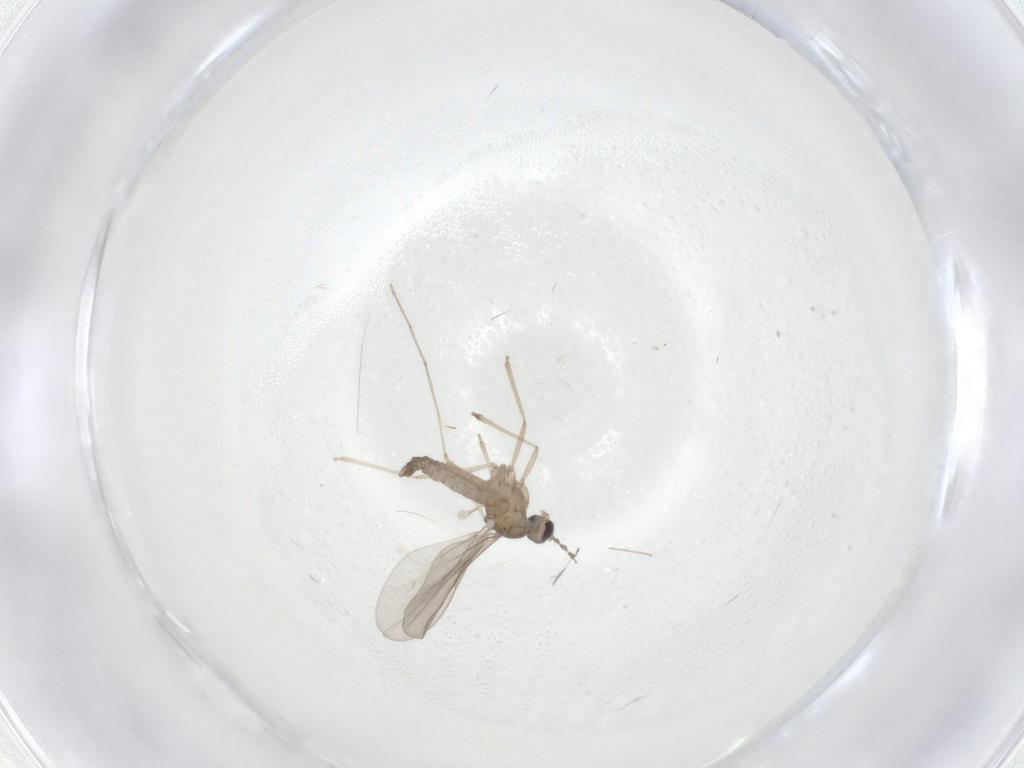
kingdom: Animalia
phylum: Arthropoda
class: Insecta
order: Diptera
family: Cecidomyiidae
